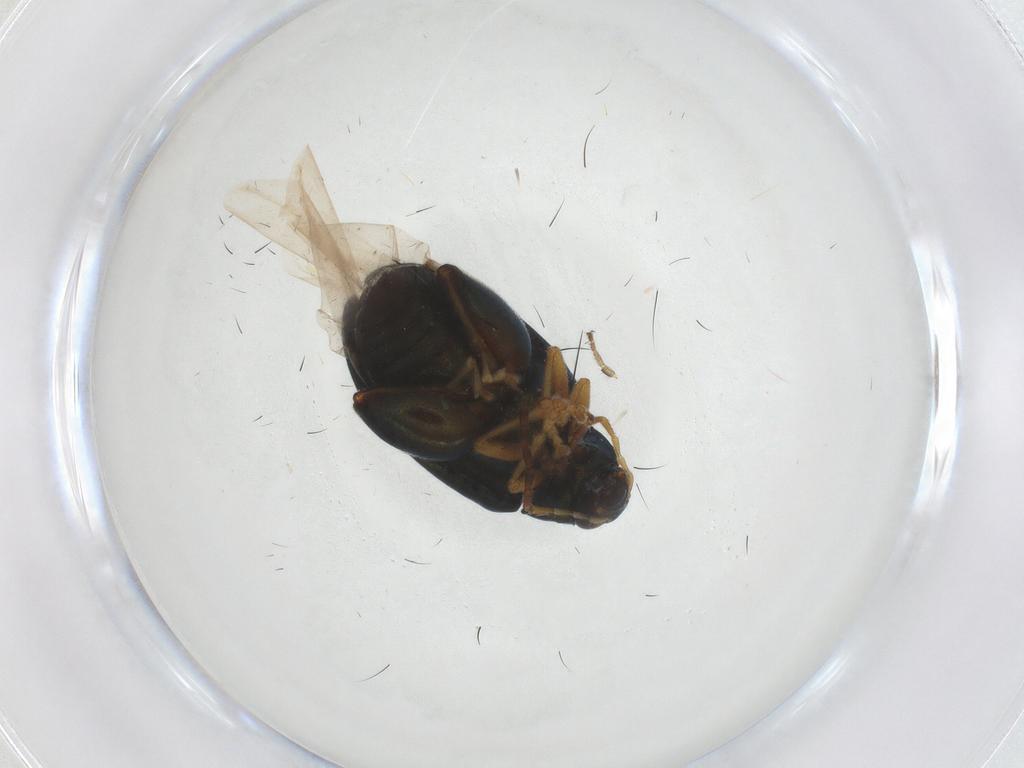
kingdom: Animalia
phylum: Arthropoda
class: Insecta
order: Coleoptera
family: Chrysomelidae
